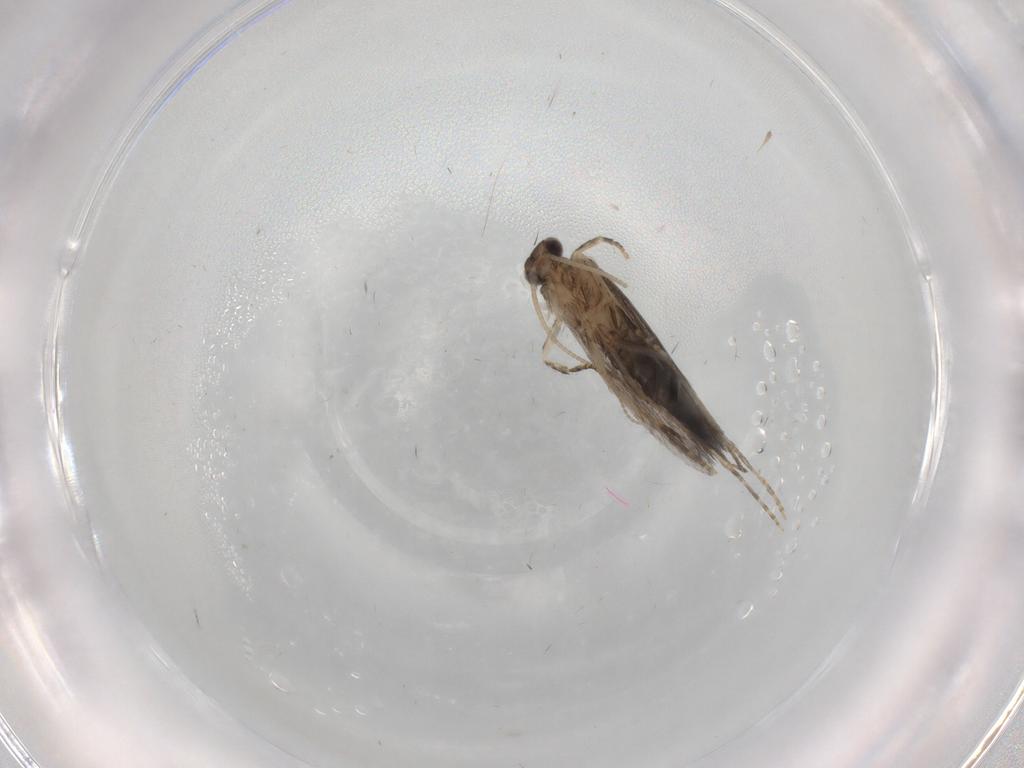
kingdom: Animalia
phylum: Arthropoda
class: Insecta
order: Trichoptera
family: Hydroptilidae
